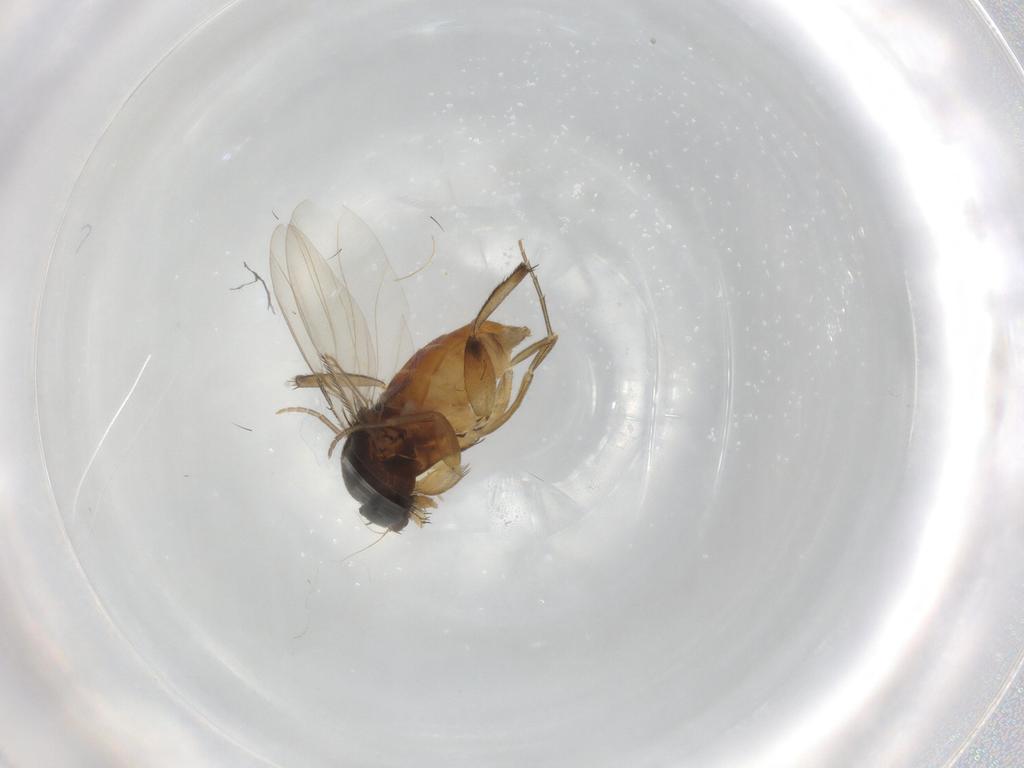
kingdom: Animalia
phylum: Arthropoda
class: Insecta
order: Diptera
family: Phoridae
